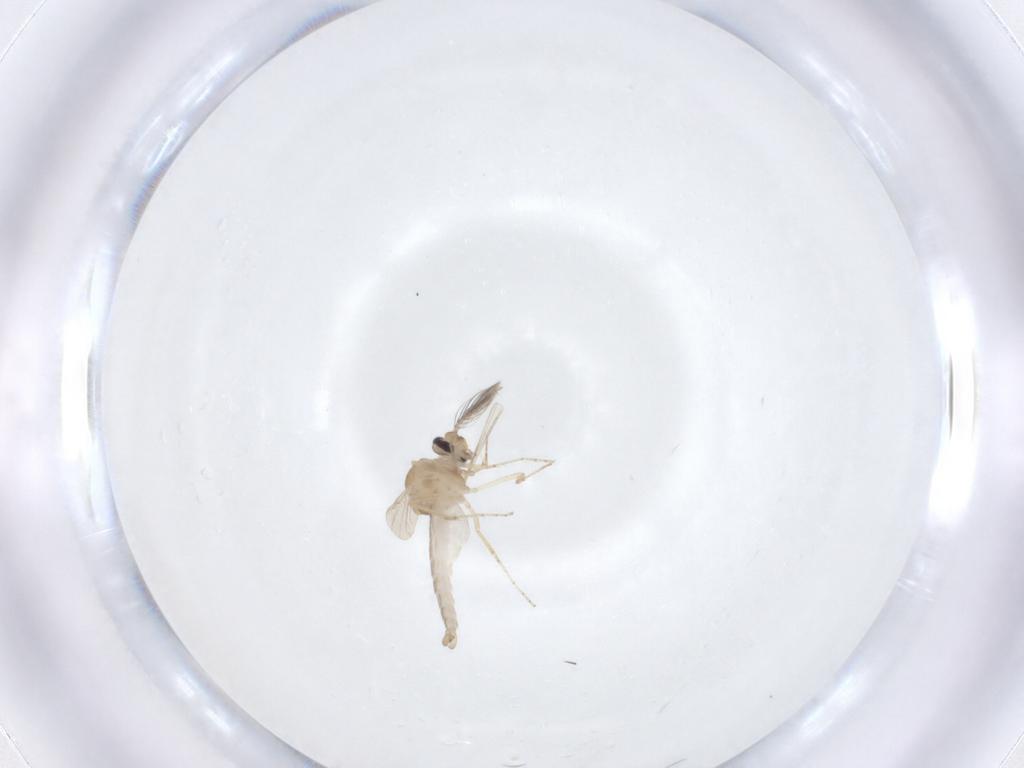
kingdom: Animalia
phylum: Arthropoda
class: Insecta
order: Diptera
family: Ceratopogonidae
